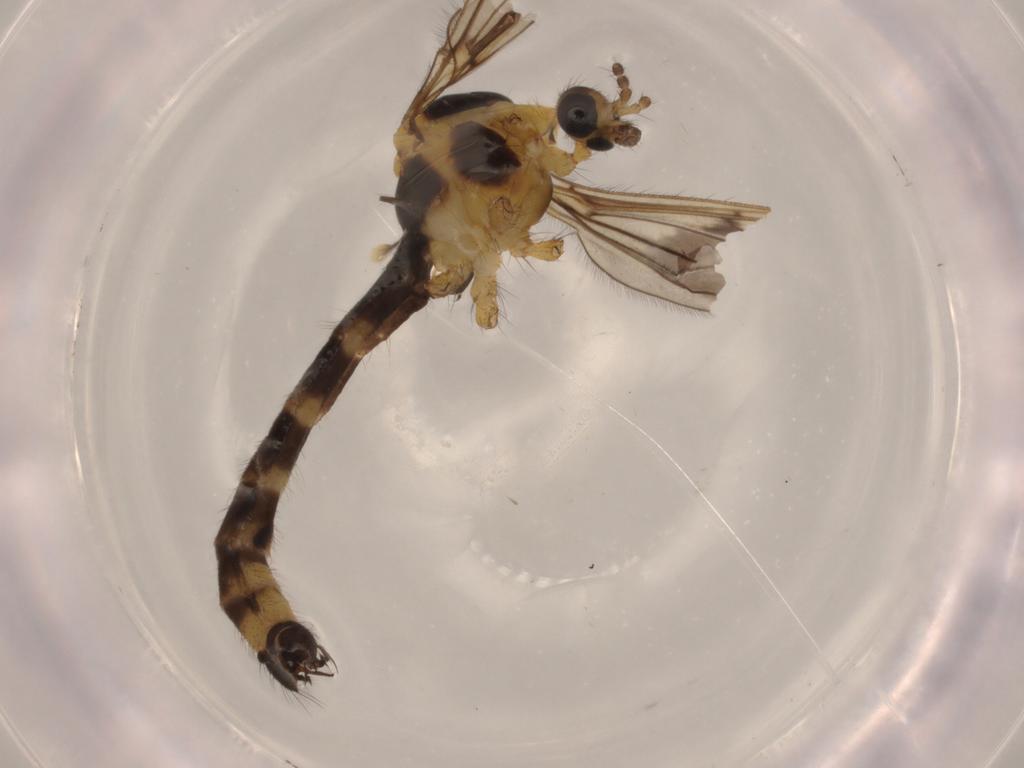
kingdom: Animalia
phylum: Arthropoda
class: Insecta
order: Diptera
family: Limoniidae
